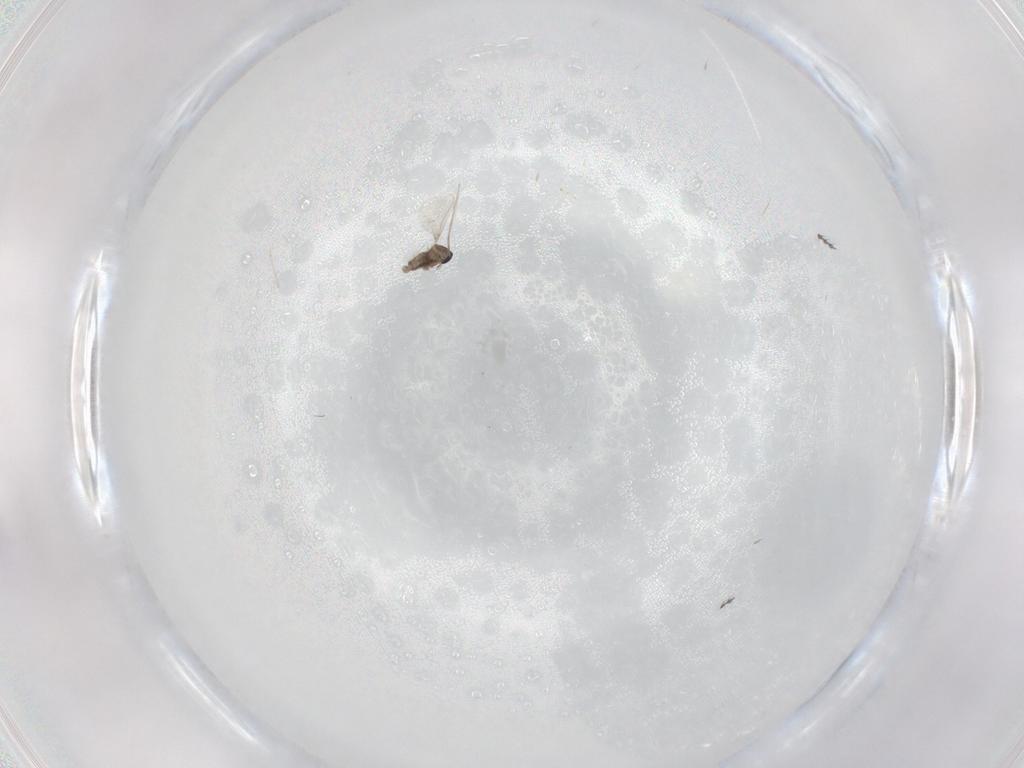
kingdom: Animalia
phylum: Arthropoda
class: Insecta
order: Diptera
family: Cecidomyiidae
